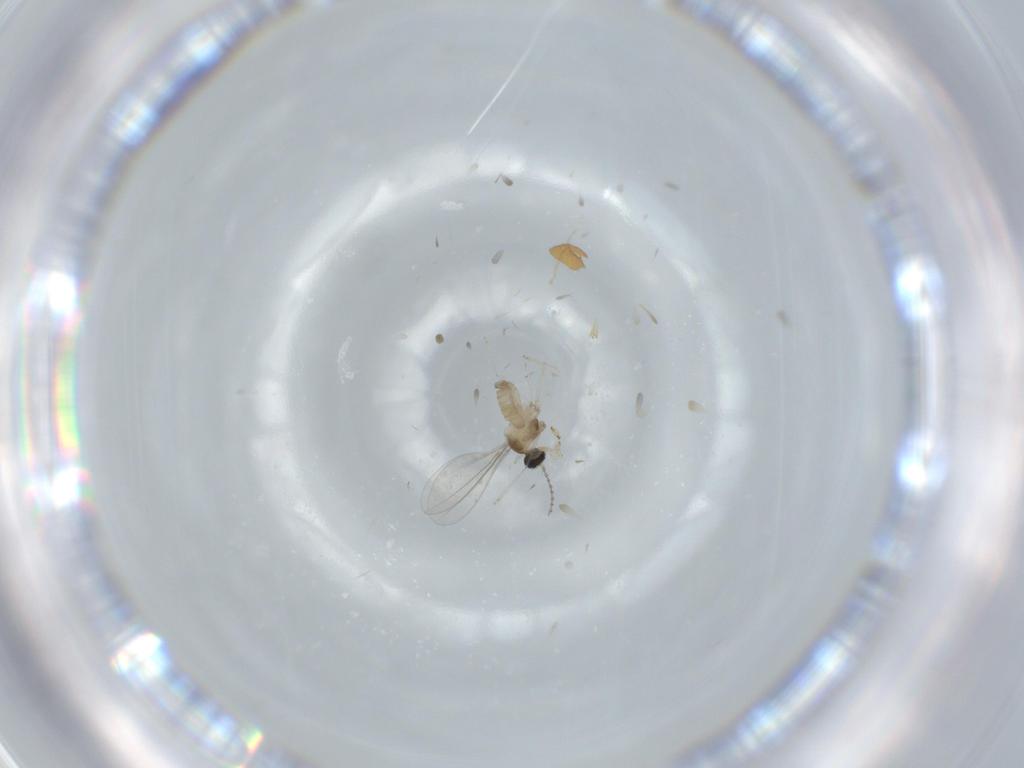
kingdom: Animalia
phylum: Arthropoda
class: Insecta
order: Diptera
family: Cecidomyiidae
